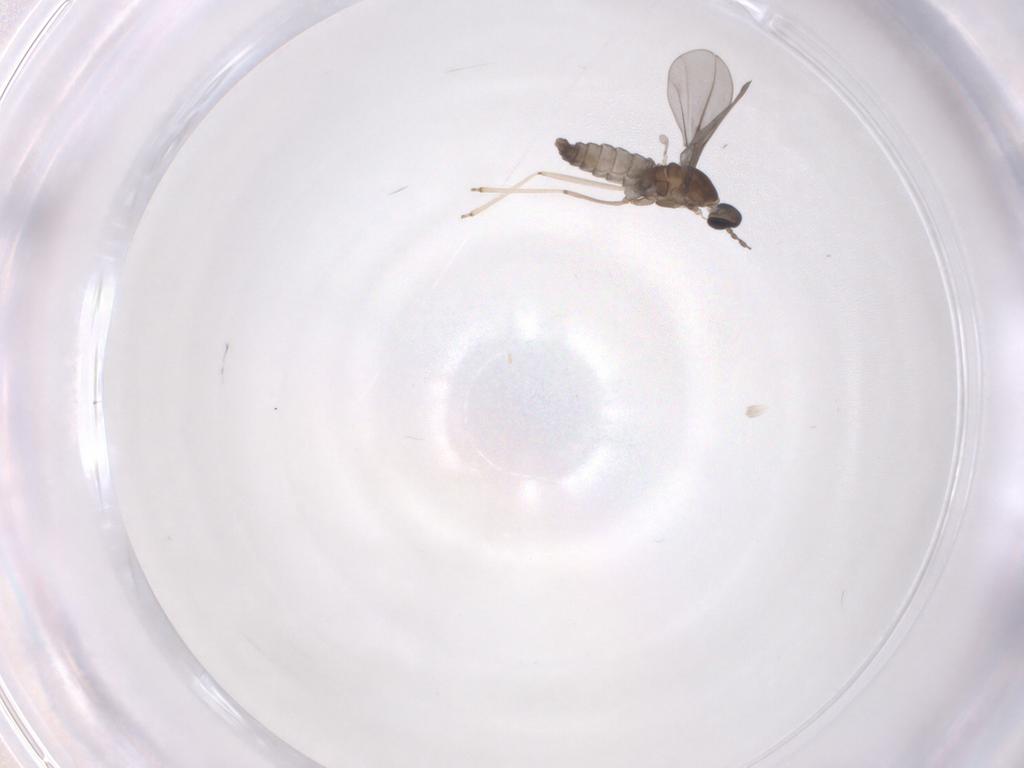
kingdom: Animalia
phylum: Arthropoda
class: Insecta
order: Diptera
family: Cecidomyiidae
